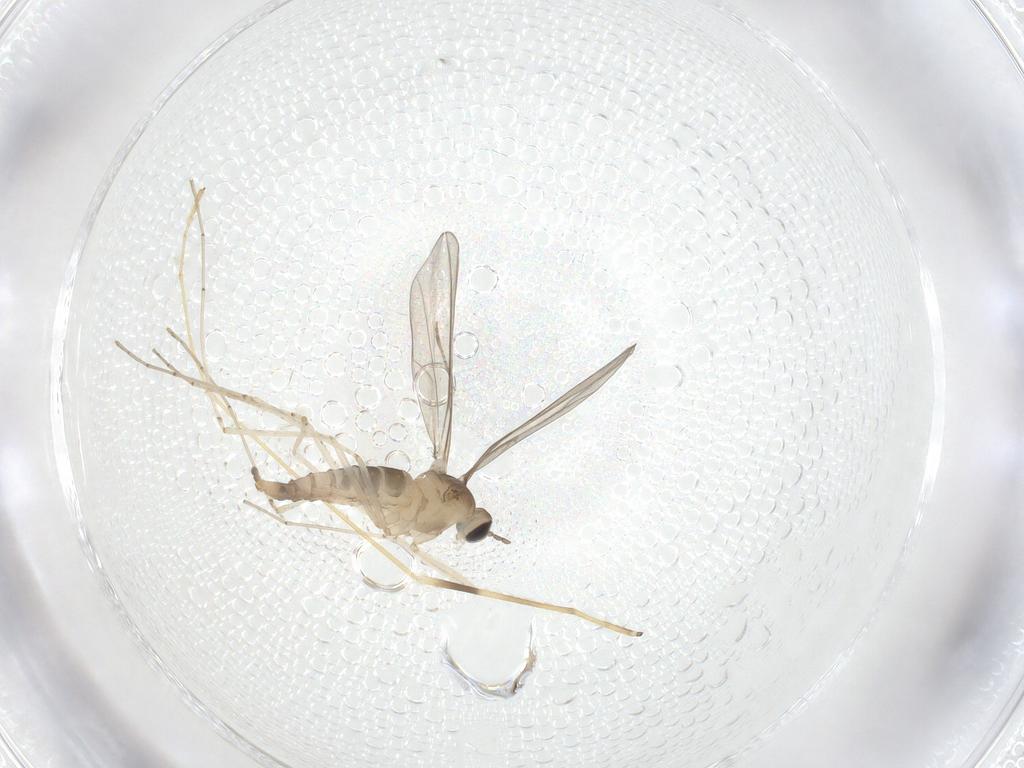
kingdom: Animalia
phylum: Arthropoda
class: Insecta
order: Diptera
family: Cecidomyiidae
